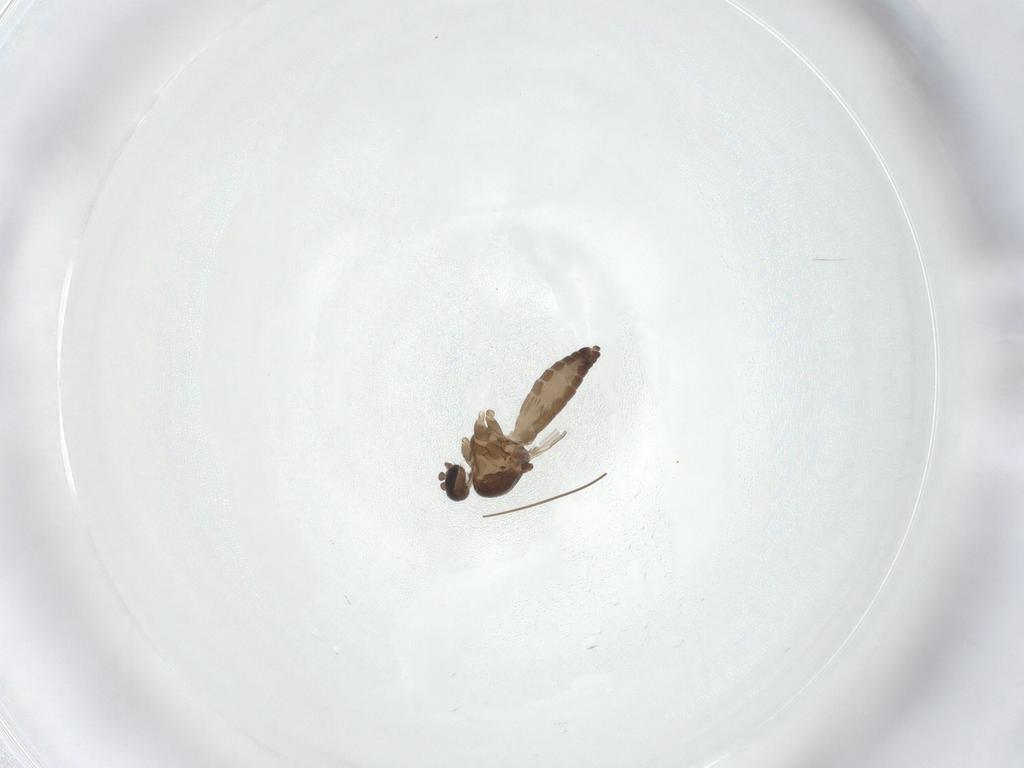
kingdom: Animalia
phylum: Arthropoda
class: Insecta
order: Diptera
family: Ceratopogonidae
